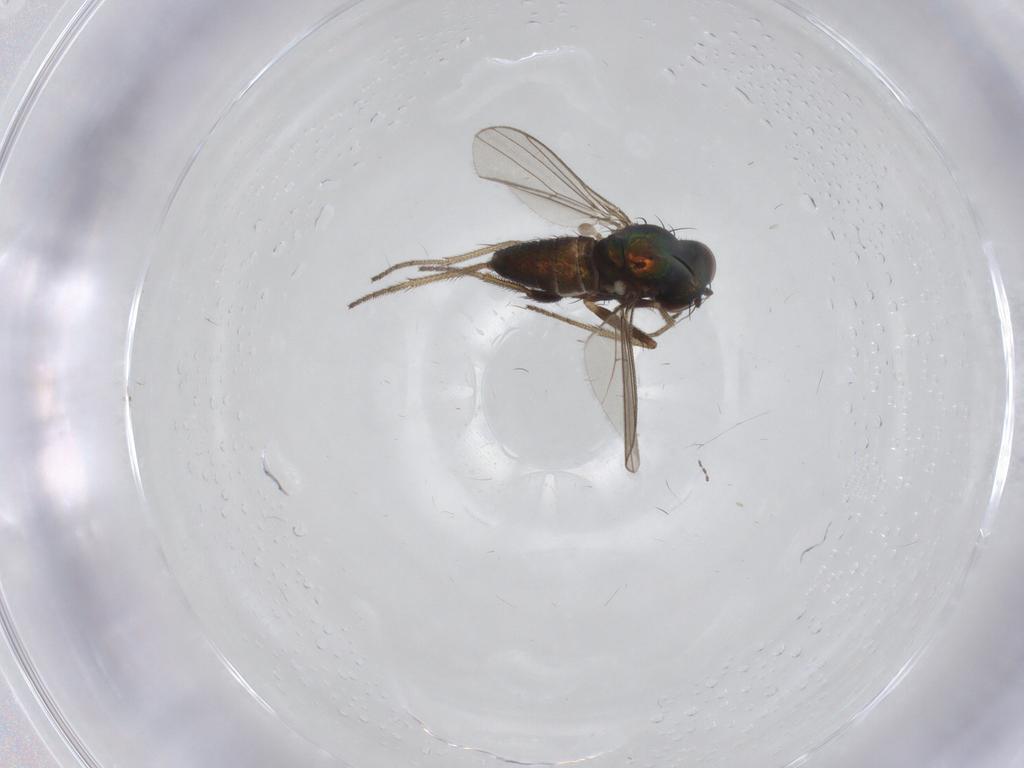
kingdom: Animalia
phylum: Arthropoda
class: Insecta
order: Diptera
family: Dolichopodidae
